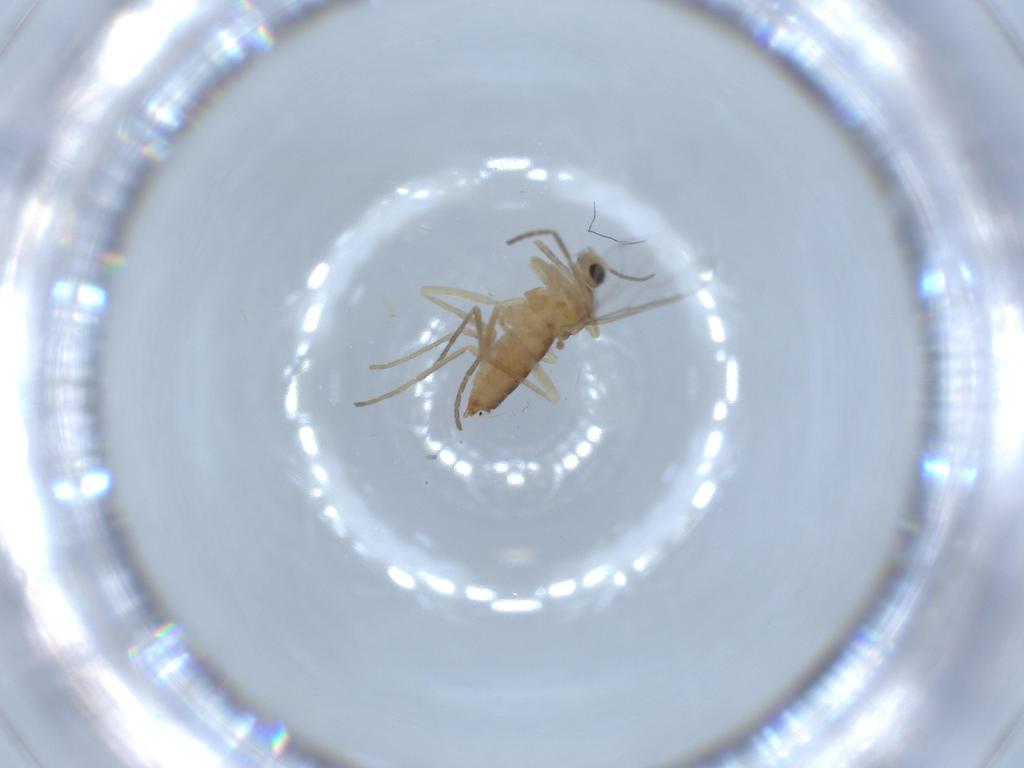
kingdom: Animalia
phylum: Arthropoda
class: Insecta
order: Diptera
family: Cecidomyiidae
